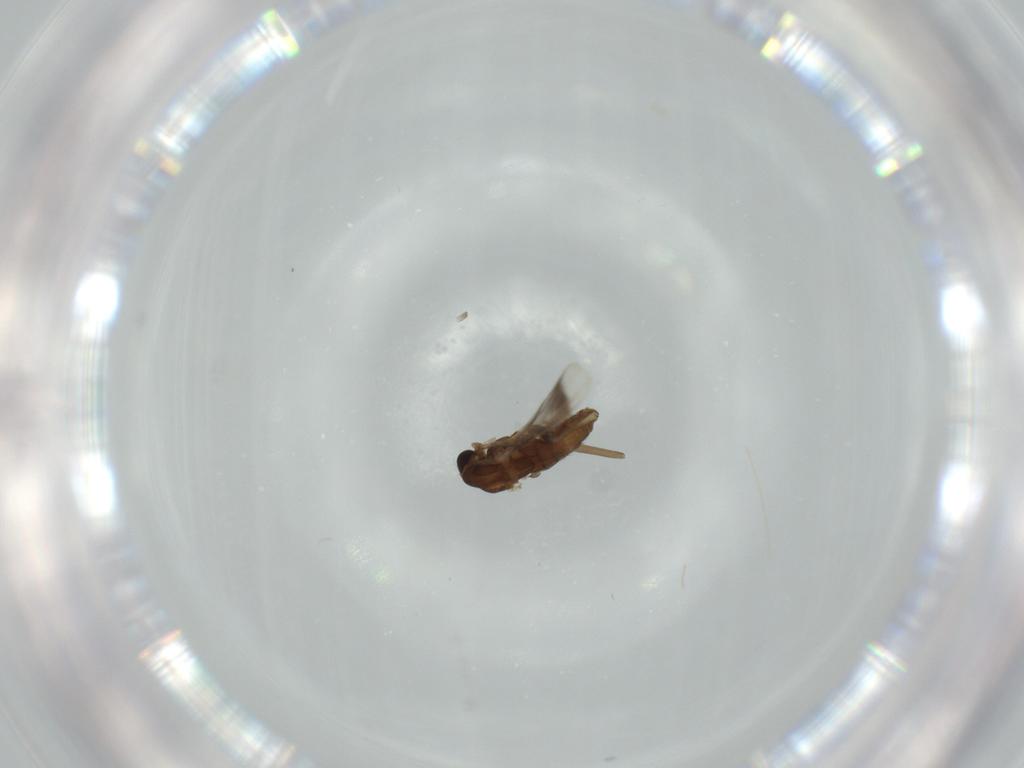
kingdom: Animalia
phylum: Arthropoda
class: Insecta
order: Diptera
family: Chironomidae
